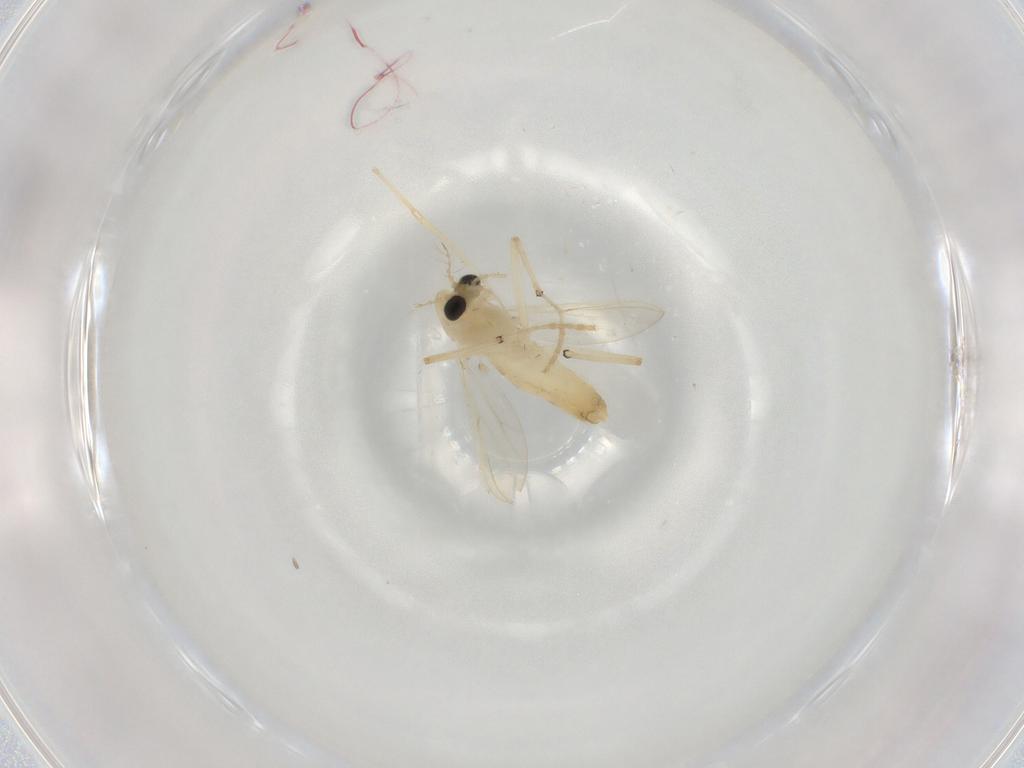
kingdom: Animalia
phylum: Arthropoda
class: Insecta
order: Diptera
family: Chironomidae
